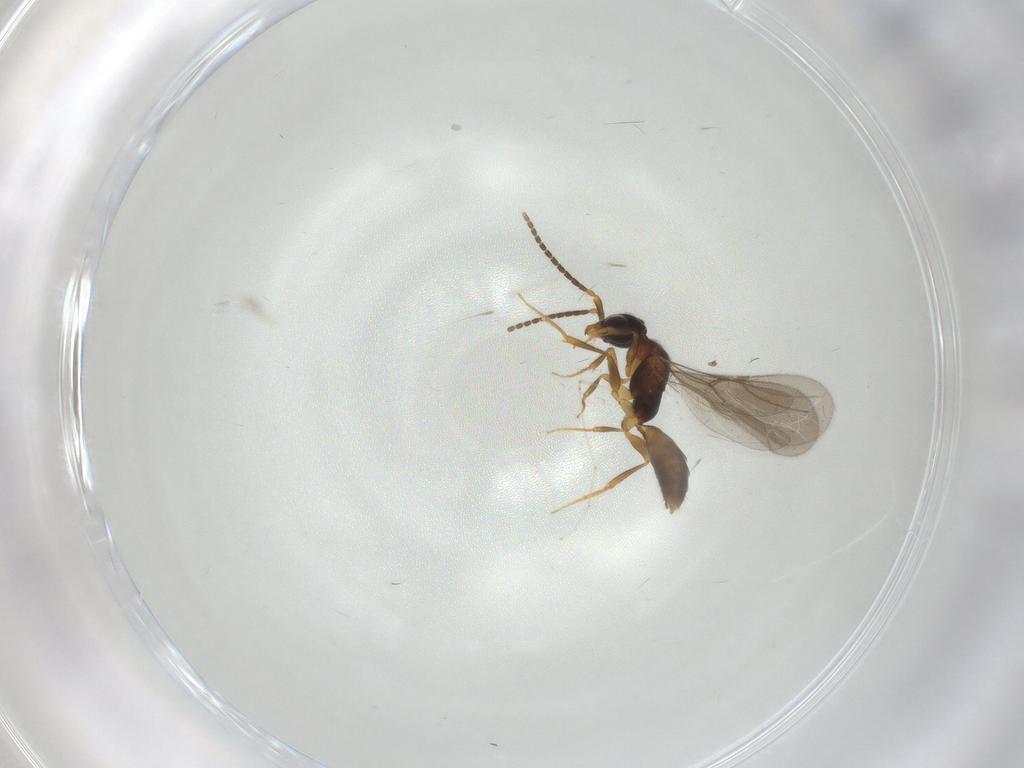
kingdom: Animalia
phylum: Arthropoda
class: Insecta
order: Hymenoptera
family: Bethylidae
